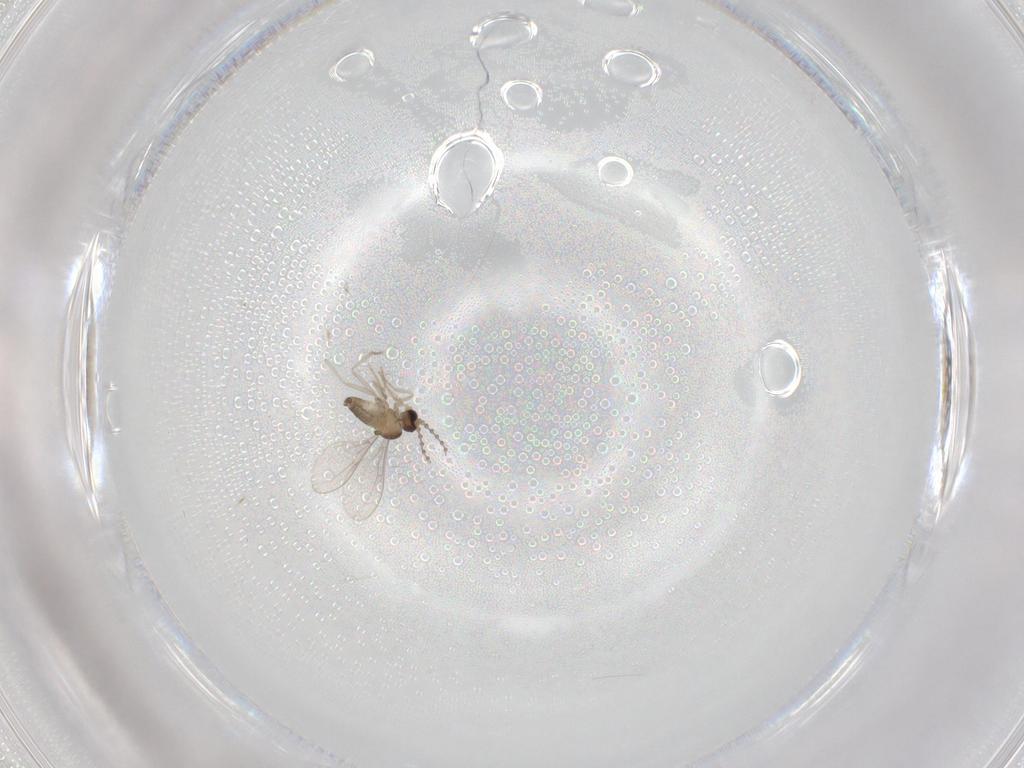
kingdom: Animalia
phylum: Arthropoda
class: Insecta
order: Diptera
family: Cecidomyiidae
